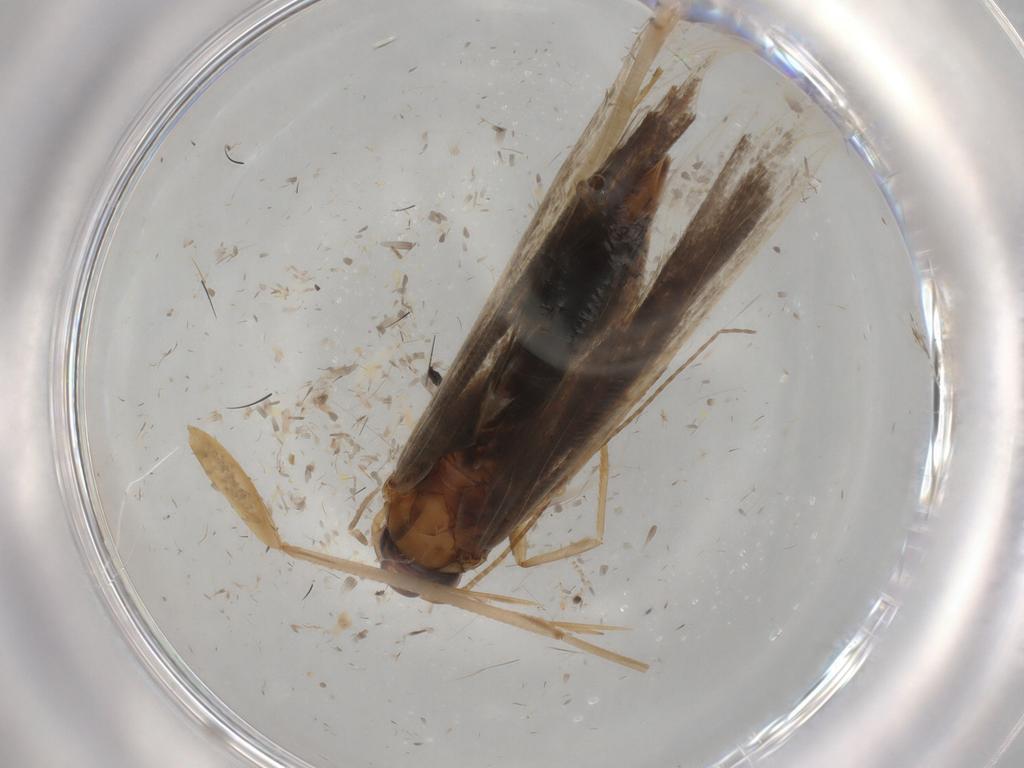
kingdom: Animalia
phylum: Arthropoda
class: Insecta
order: Lepidoptera
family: Gelechiidae
